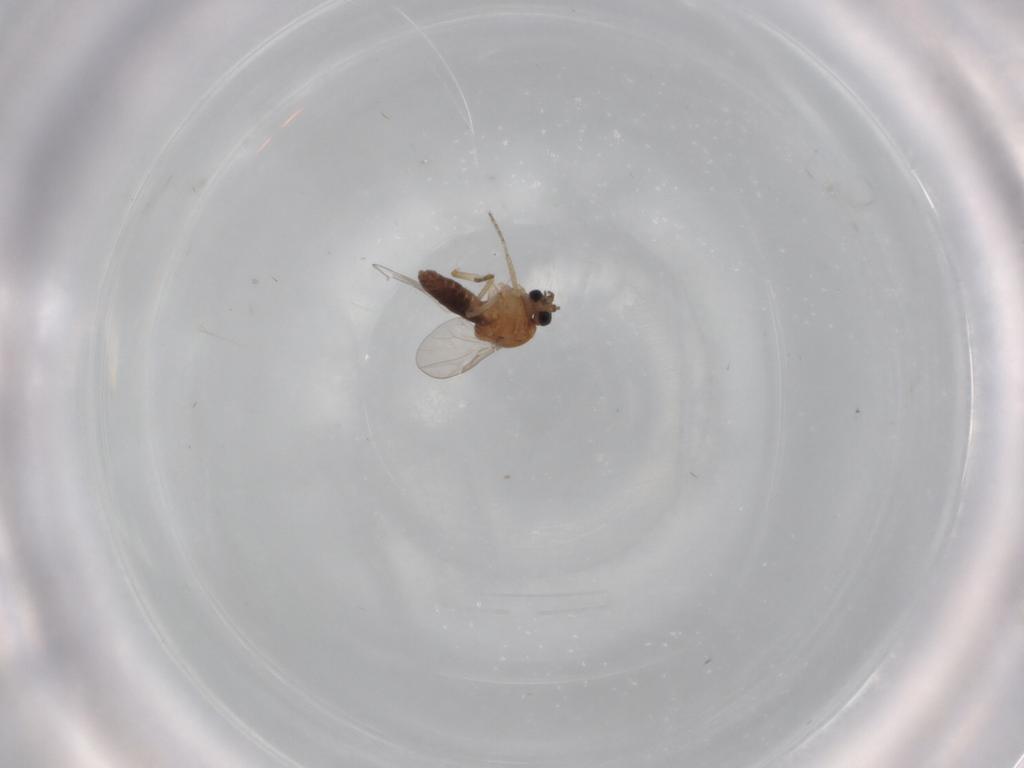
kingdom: Animalia
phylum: Arthropoda
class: Insecta
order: Diptera
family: Ceratopogonidae
